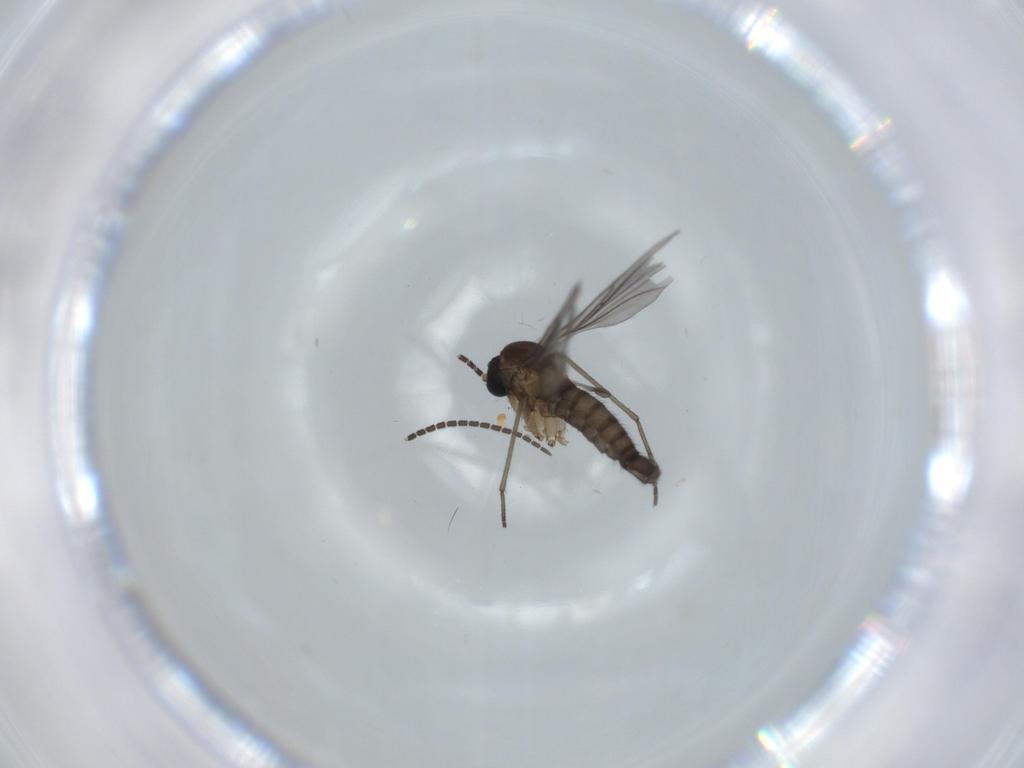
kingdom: Animalia
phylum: Arthropoda
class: Insecta
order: Diptera
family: Sciaridae
